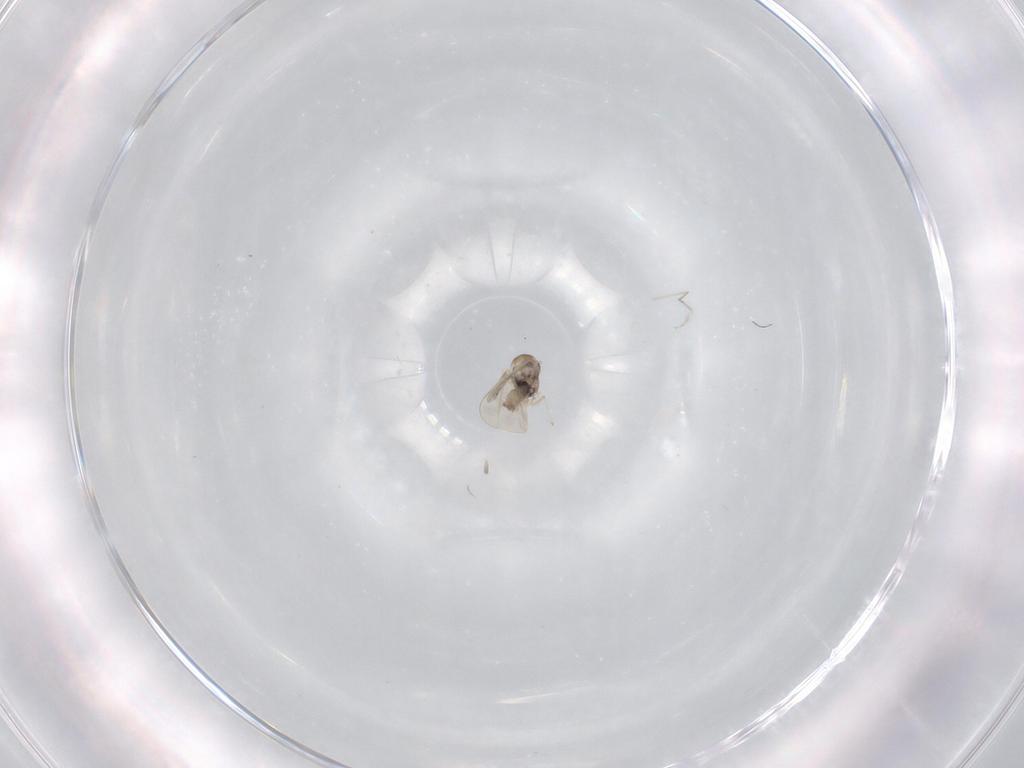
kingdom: Animalia
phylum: Arthropoda
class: Insecta
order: Diptera
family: Cecidomyiidae
